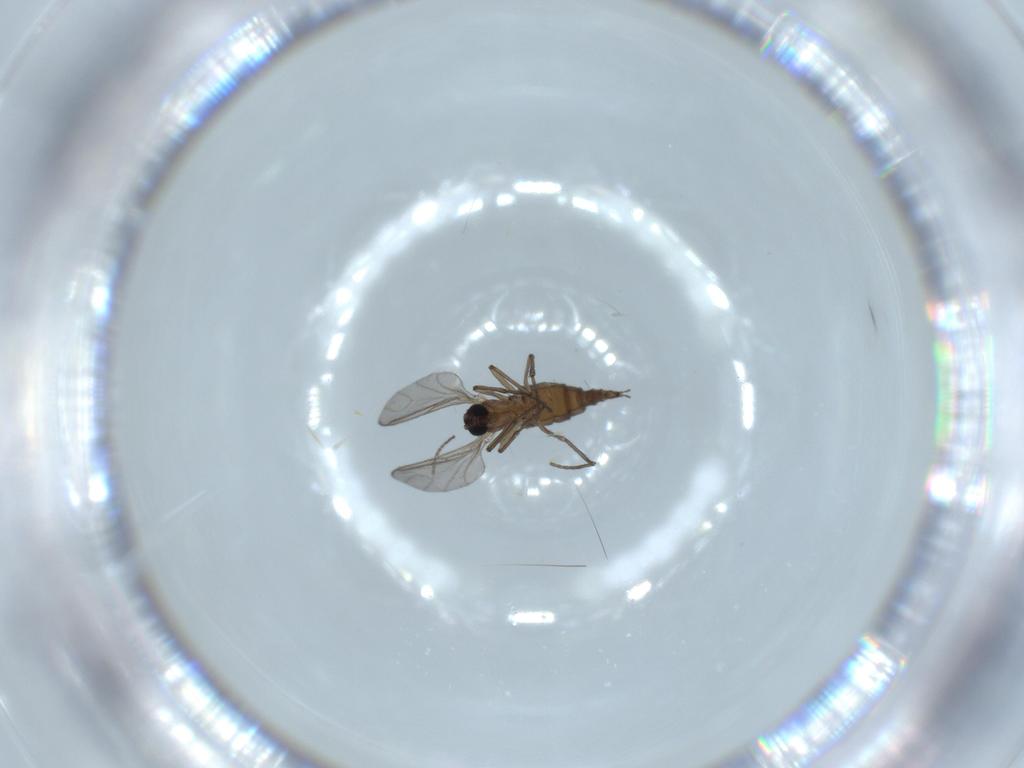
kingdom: Animalia
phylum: Arthropoda
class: Insecta
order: Diptera
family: Sciaridae
